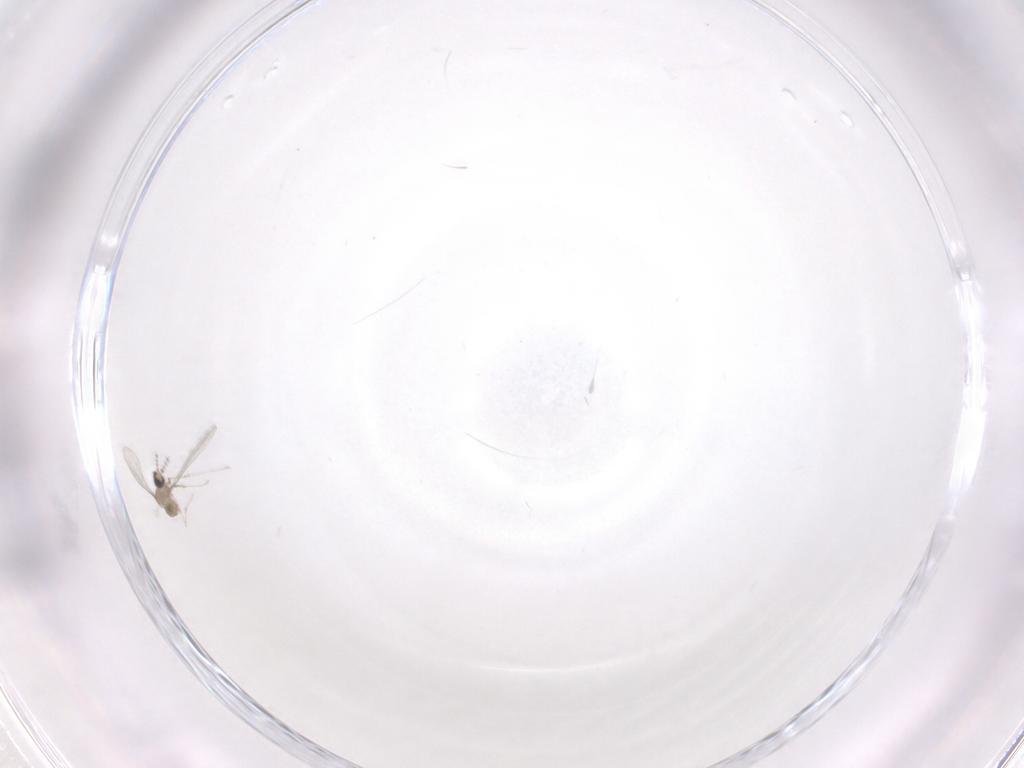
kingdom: Animalia
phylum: Arthropoda
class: Insecta
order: Diptera
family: Cecidomyiidae
